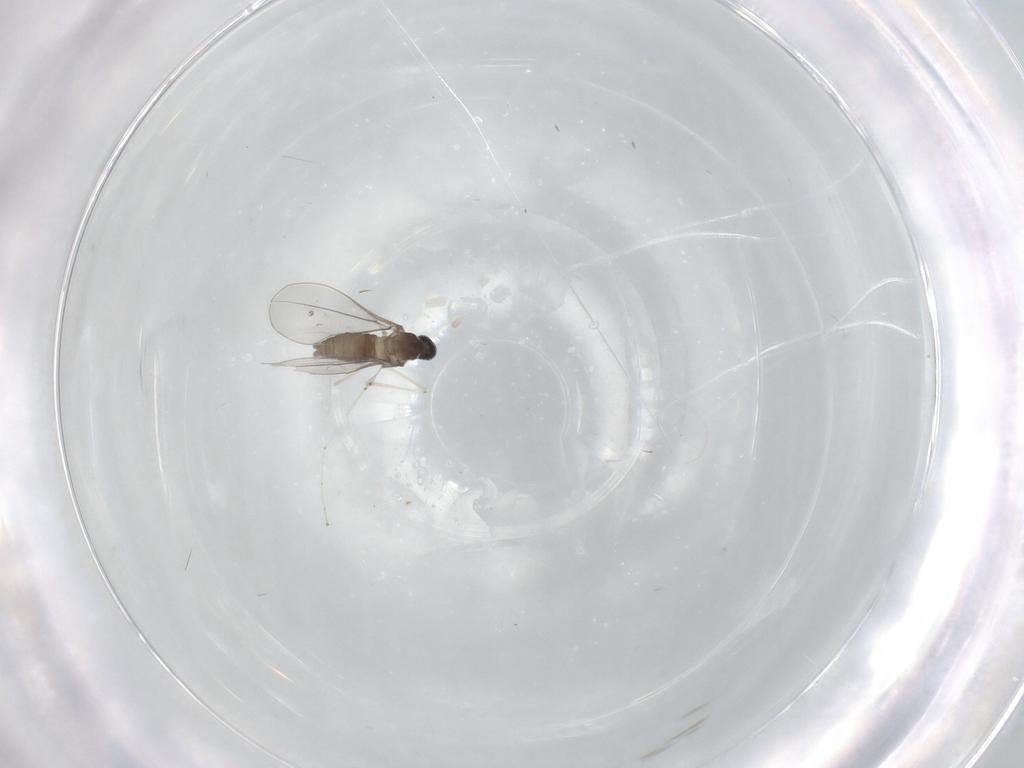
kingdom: Animalia
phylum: Arthropoda
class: Insecta
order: Diptera
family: Cecidomyiidae
